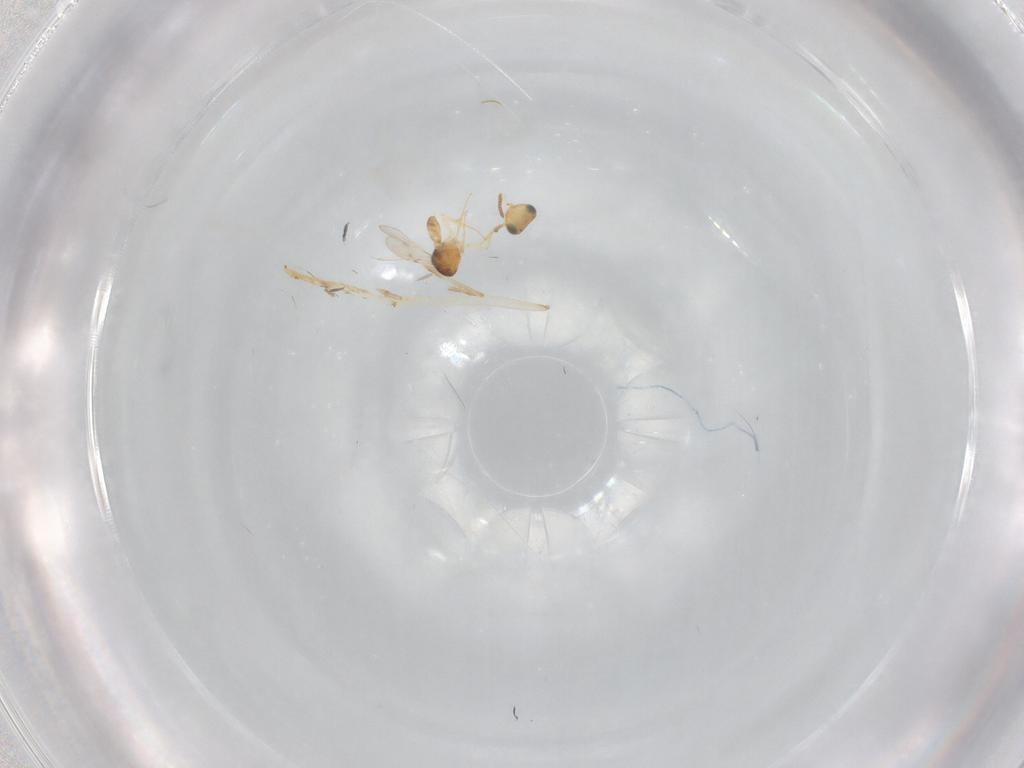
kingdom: Animalia
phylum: Arthropoda
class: Insecta
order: Hymenoptera
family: Scelionidae
